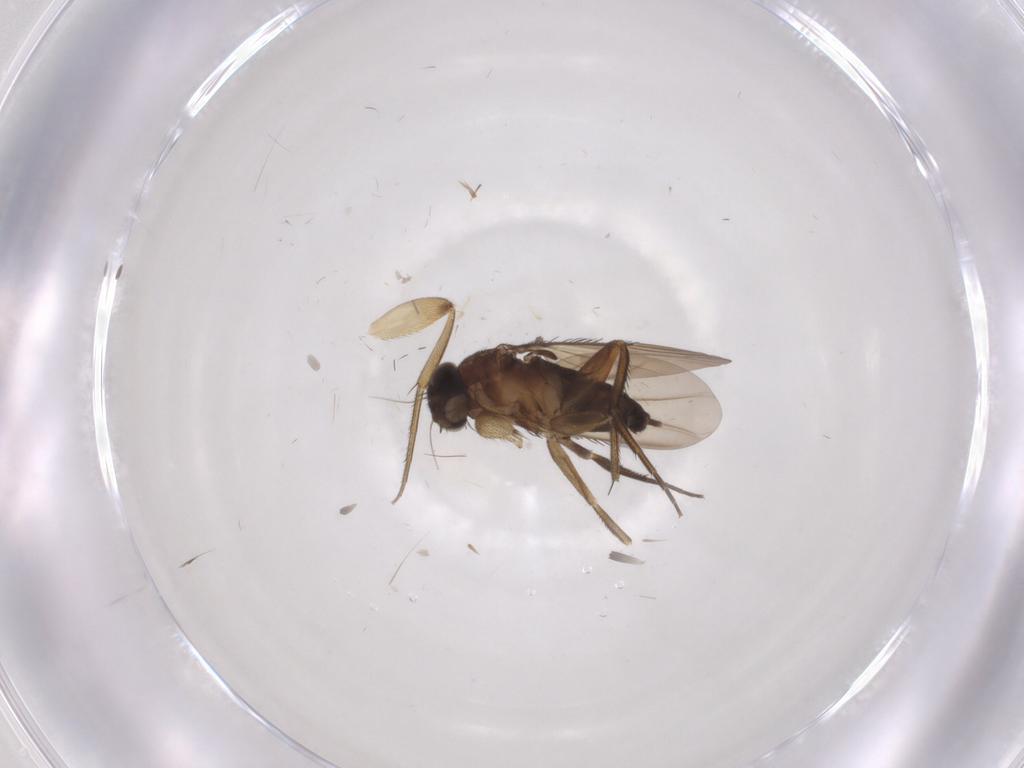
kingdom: Animalia
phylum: Arthropoda
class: Insecta
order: Diptera
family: Phoridae
